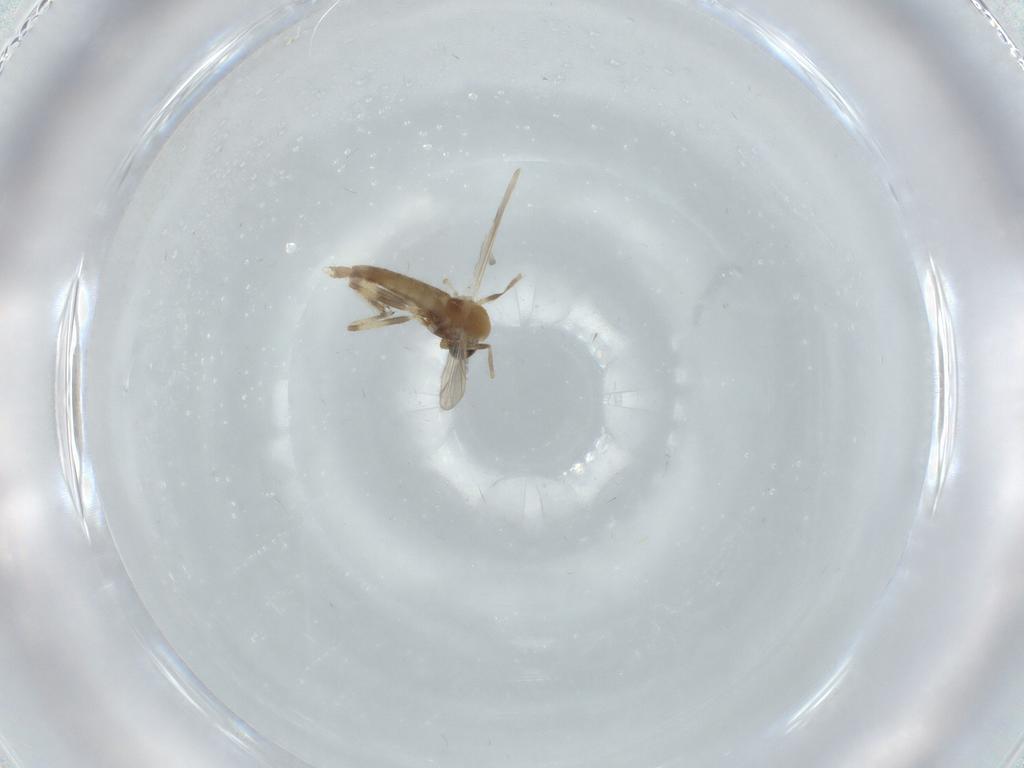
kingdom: Animalia
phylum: Arthropoda
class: Insecta
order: Diptera
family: Chironomidae
